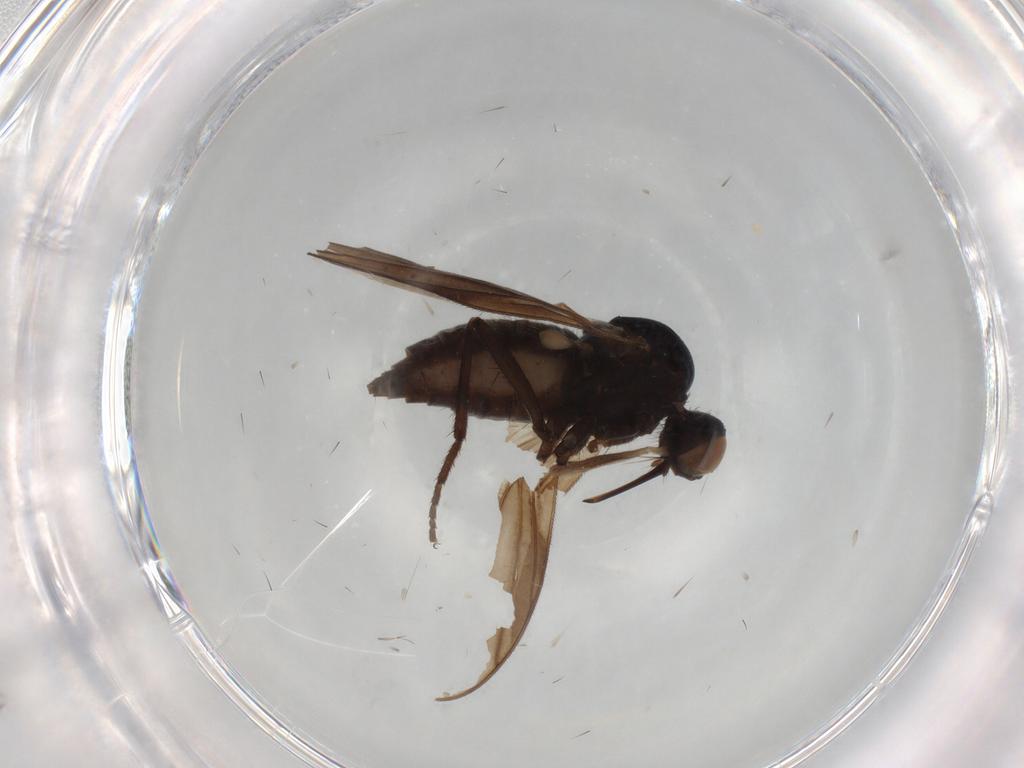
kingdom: Animalia
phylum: Arthropoda
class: Insecta
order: Diptera
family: Empididae
